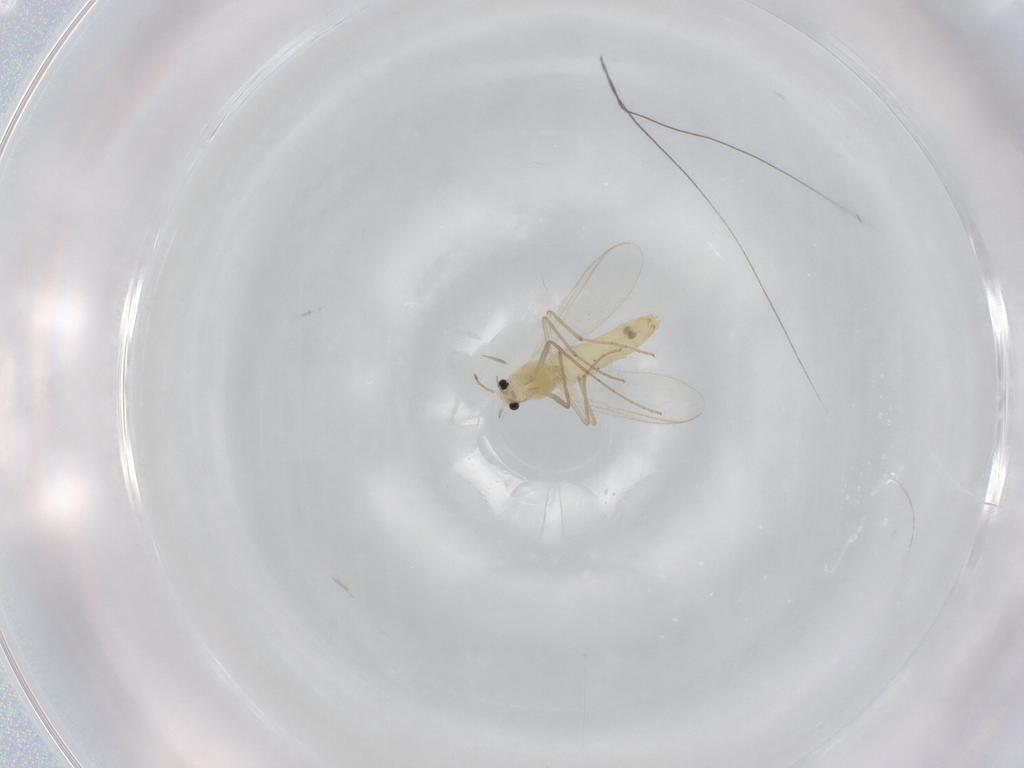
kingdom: Animalia
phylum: Arthropoda
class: Insecta
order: Diptera
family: Chironomidae
